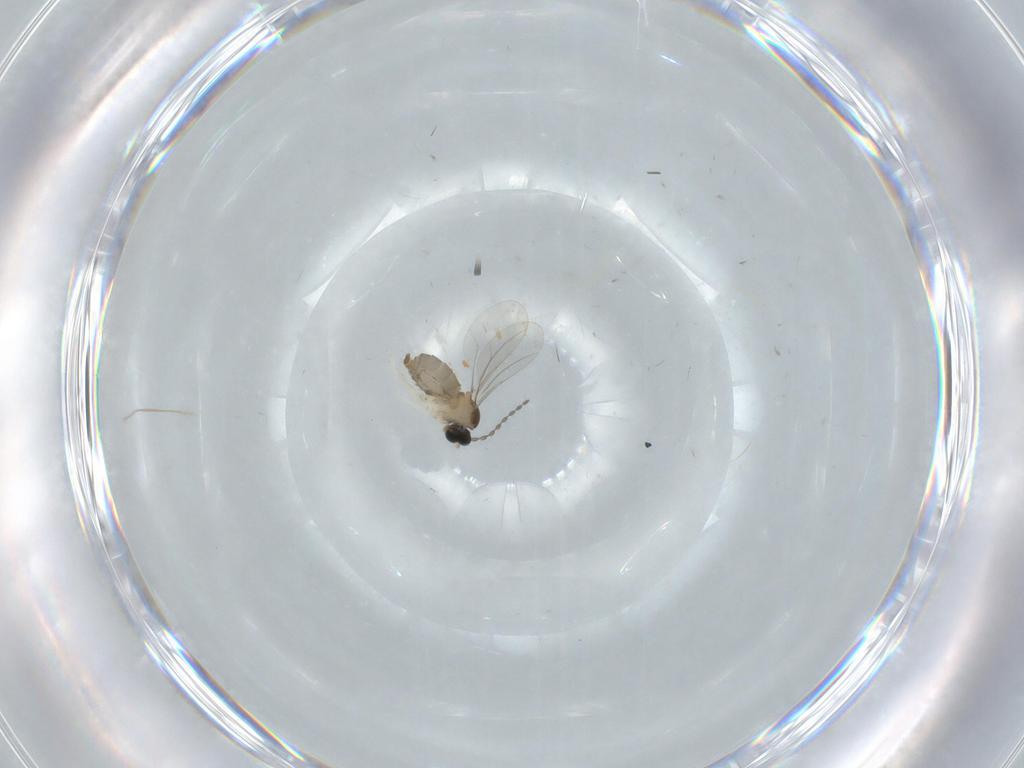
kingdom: Animalia
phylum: Arthropoda
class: Insecta
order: Diptera
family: Cecidomyiidae
